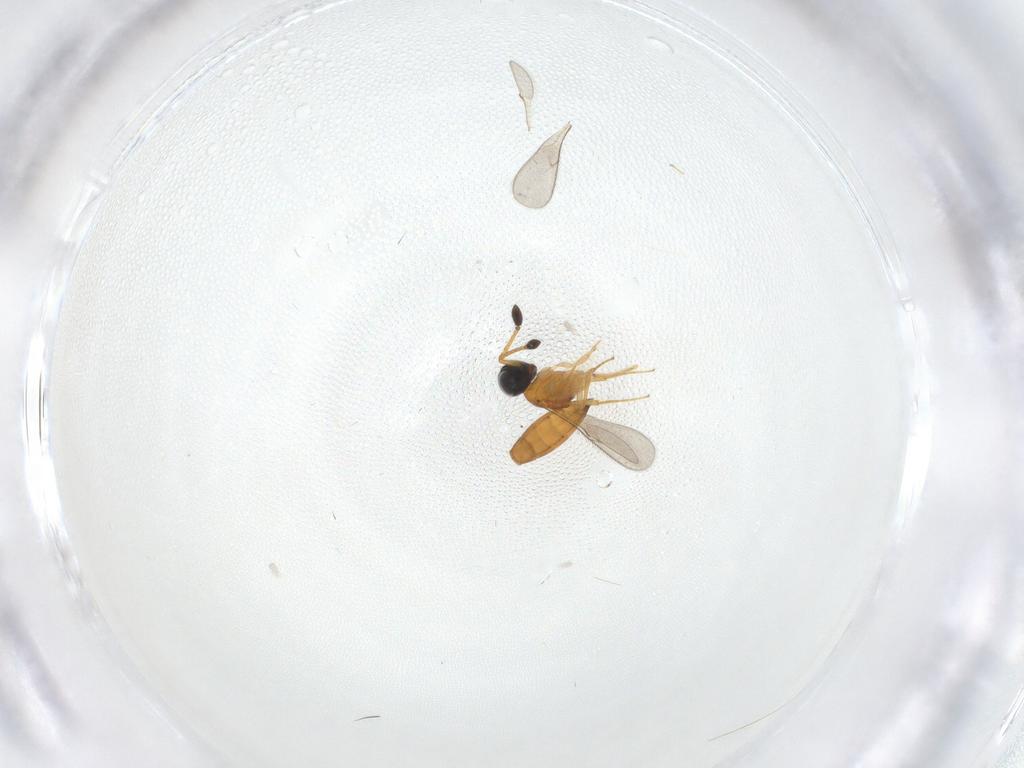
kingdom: Animalia
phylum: Arthropoda
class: Insecta
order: Hymenoptera
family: Scelionidae
